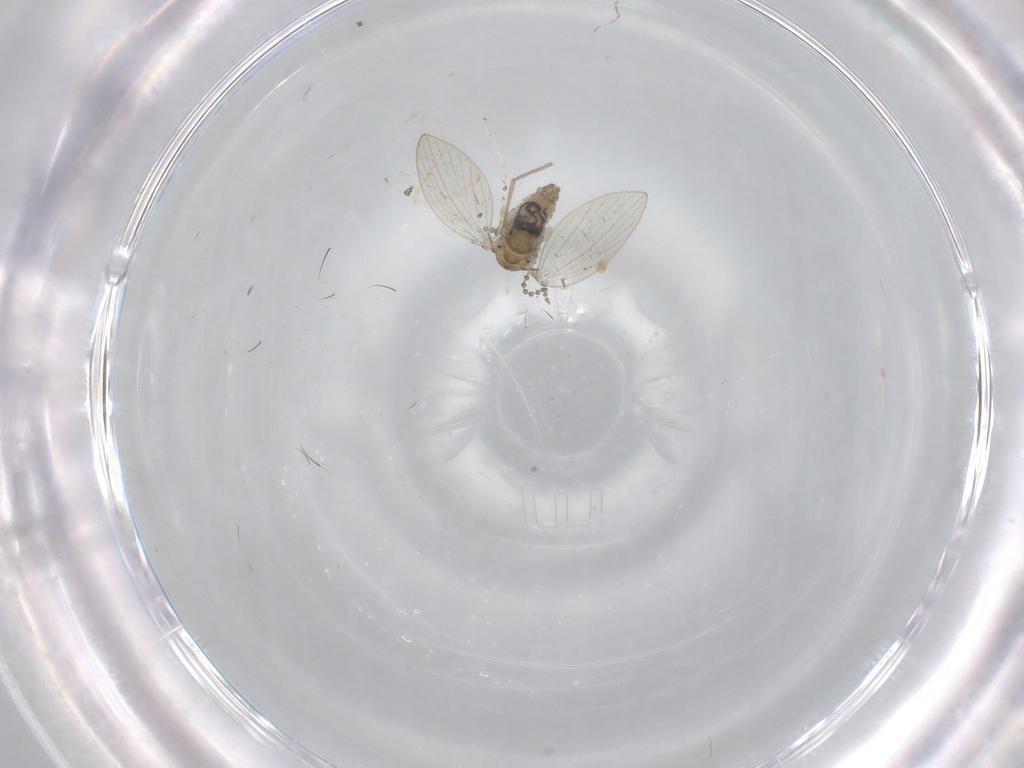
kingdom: Animalia
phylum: Arthropoda
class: Insecta
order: Diptera
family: Psychodidae
